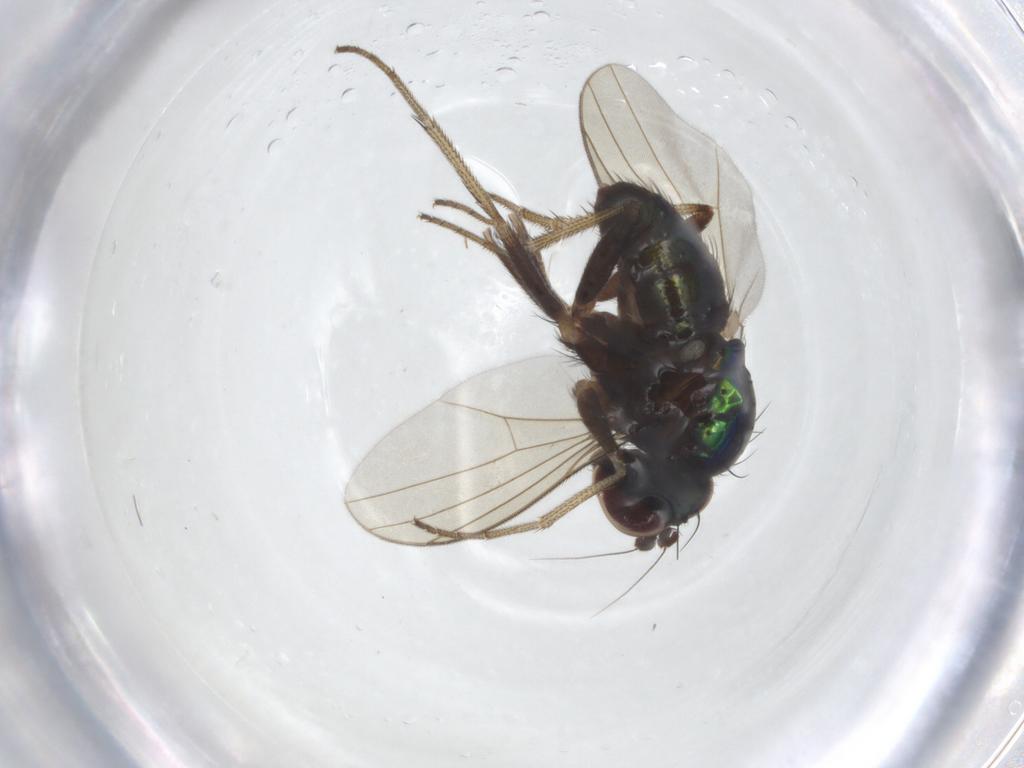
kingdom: Animalia
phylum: Arthropoda
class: Insecta
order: Diptera
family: Dolichopodidae
